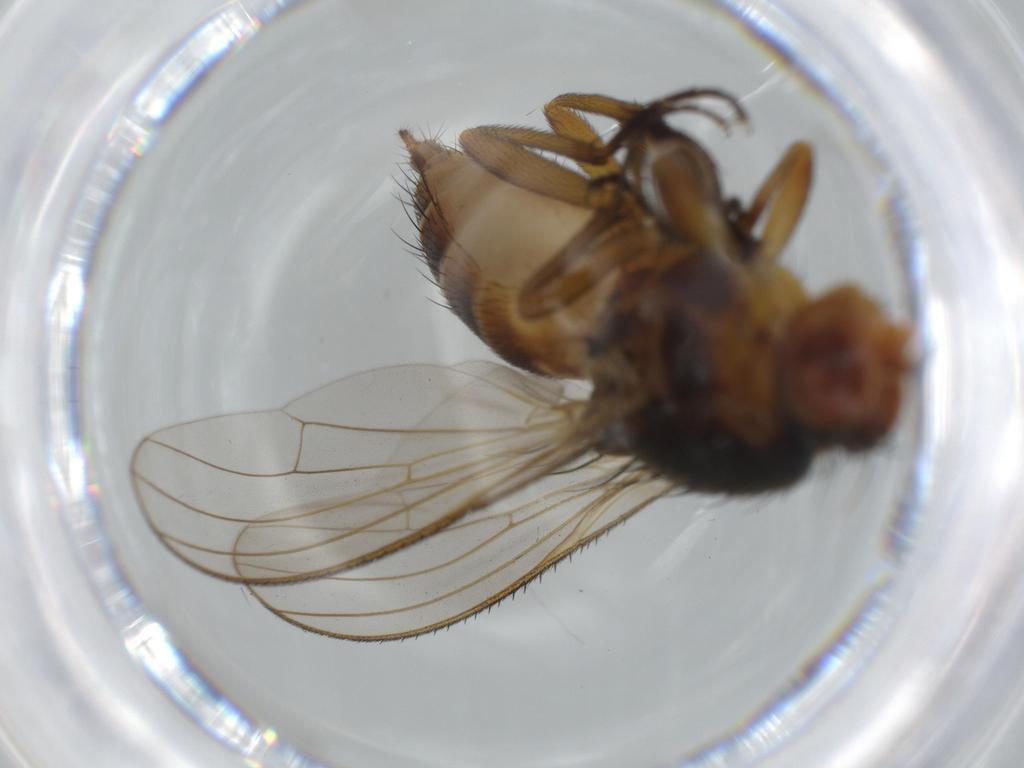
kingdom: Animalia
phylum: Arthropoda
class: Insecta
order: Diptera
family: Heleomyzidae
